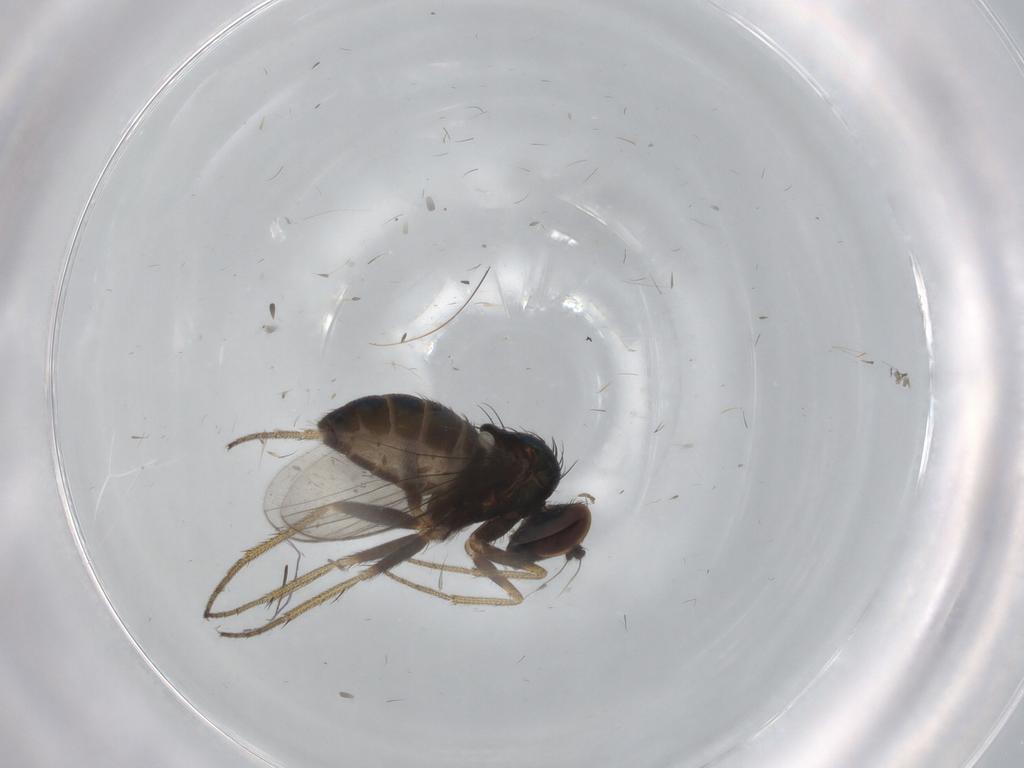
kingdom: Animalia
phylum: Arthropoda
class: Insecta
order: Diptera
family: Dolichopodidae
